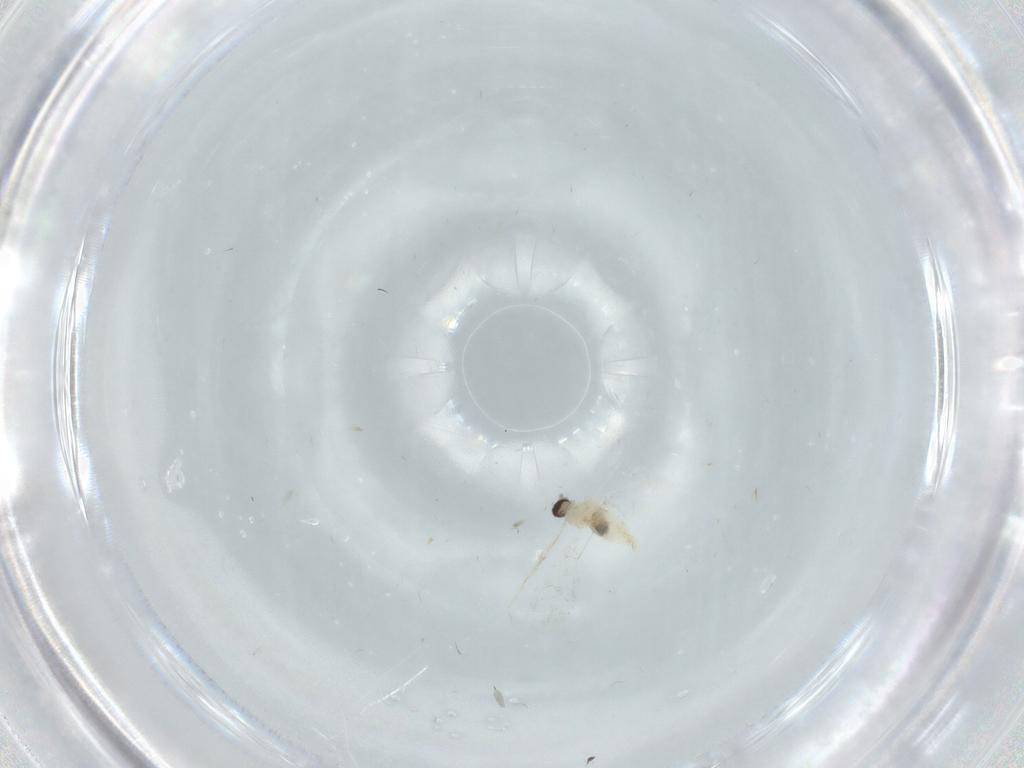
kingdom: Animalia
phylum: Arthropoda
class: Insecta
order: Diptera
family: Cecidomyiidae
